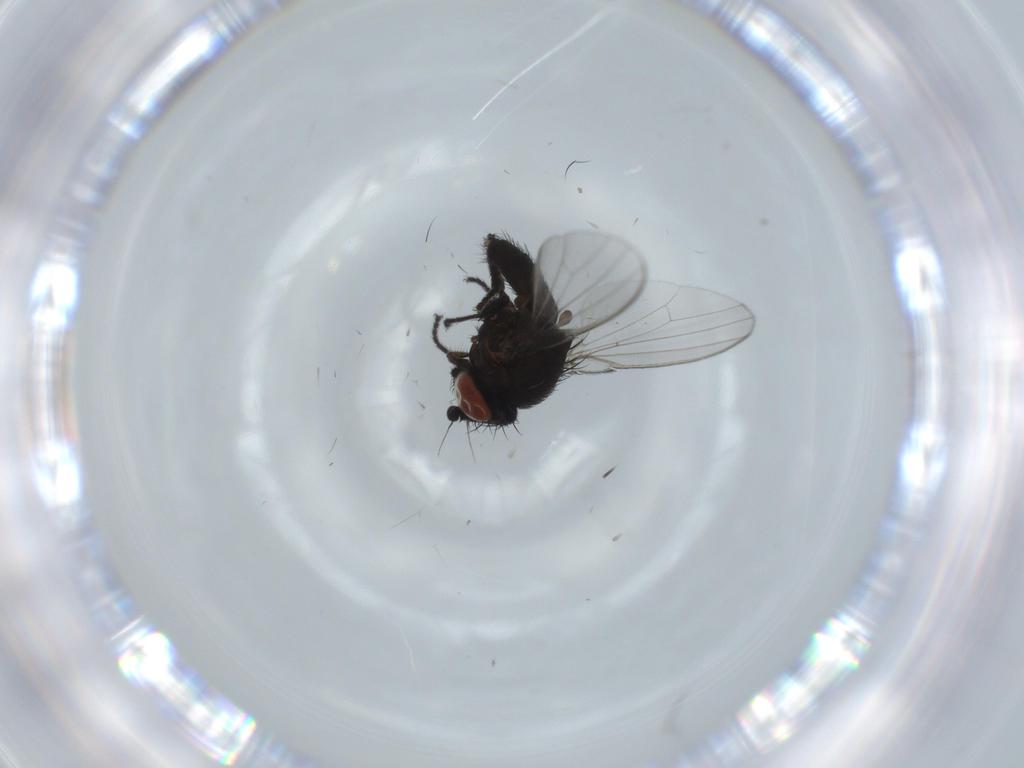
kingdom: Animalia
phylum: Arthropoda
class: Insecta
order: Diptera
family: Milichiidae
